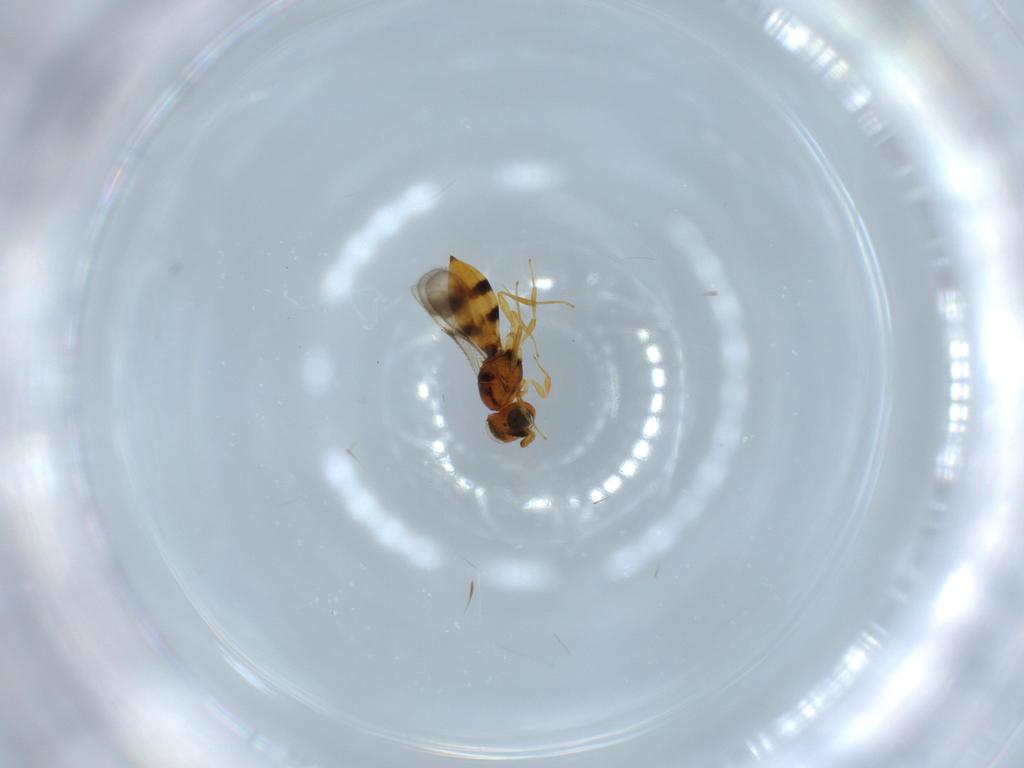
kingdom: Animalia
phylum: Arthropoda
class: Insecta
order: Hymenoptera
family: Scelionidae
